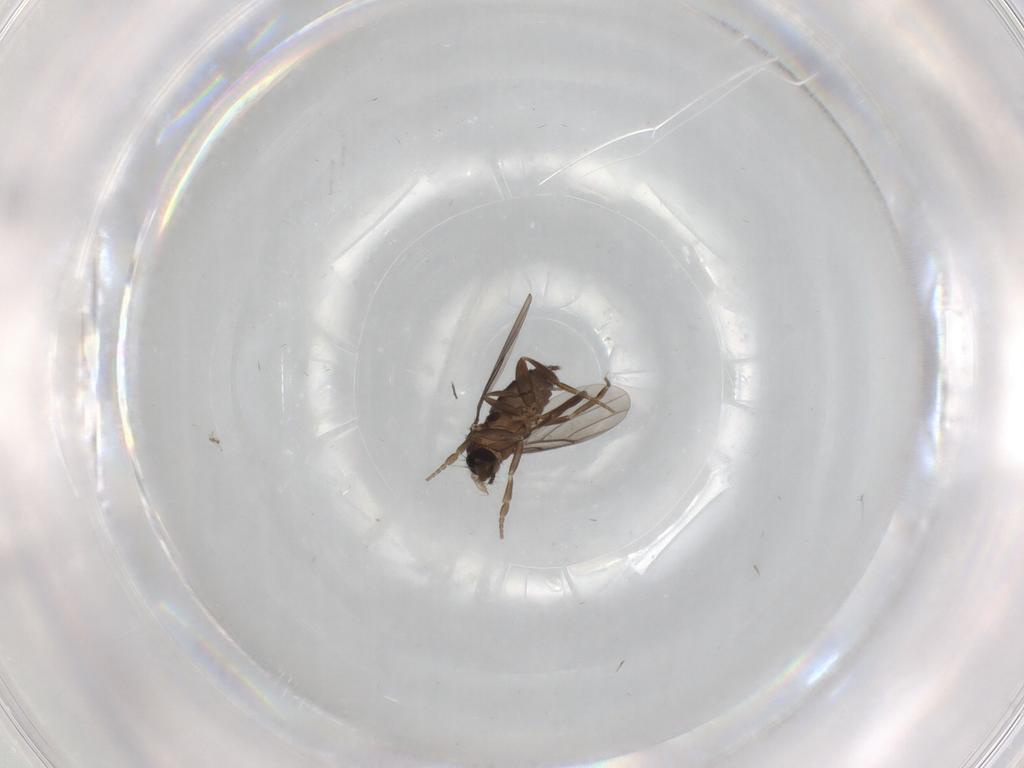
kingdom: Animalia
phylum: Arthropoda
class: Insecta
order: Diptera
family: Phoridae
